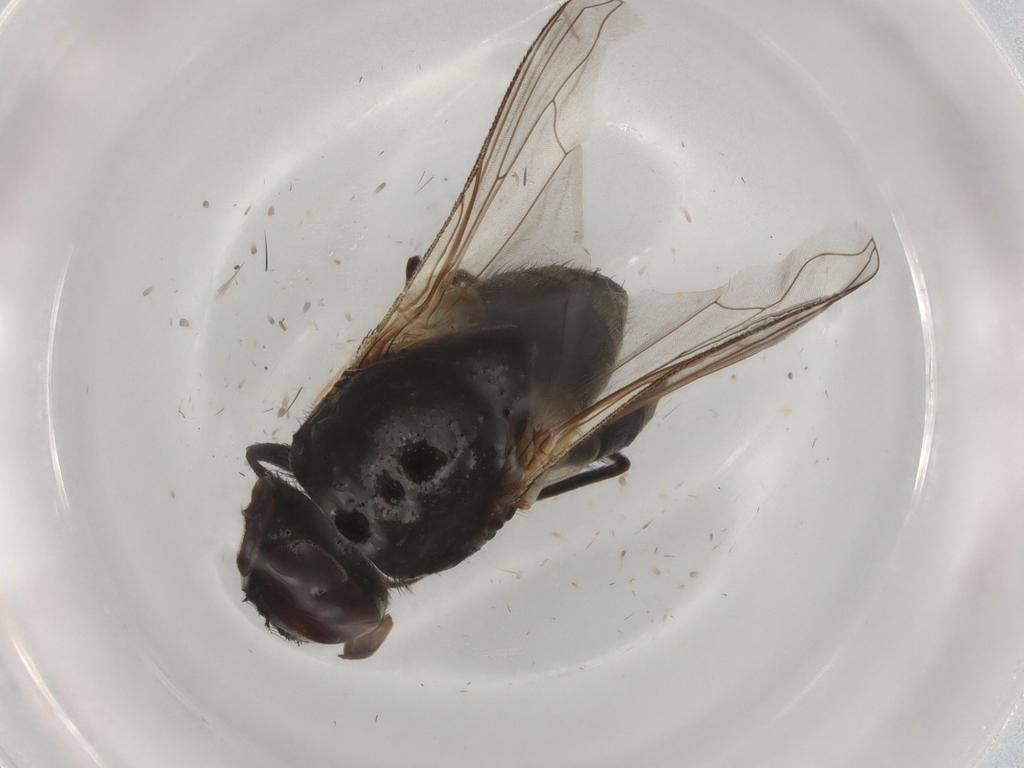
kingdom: Animalia
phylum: Arthropoda
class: Insecta
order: Diptera
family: Muscidae
